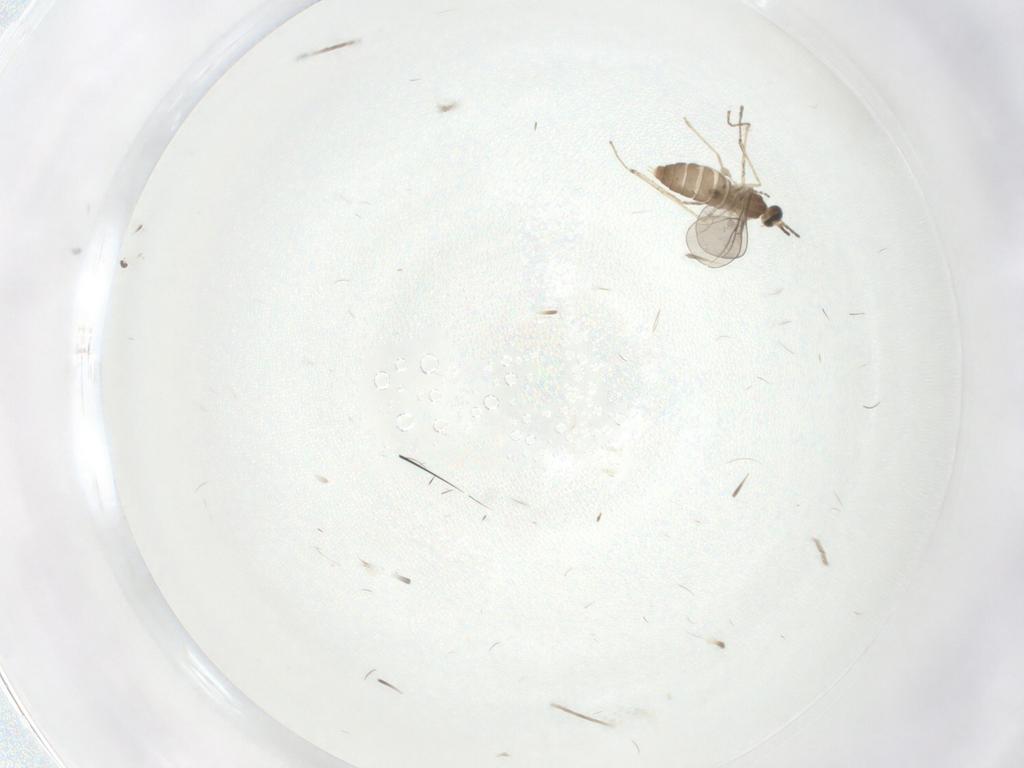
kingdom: Animalia
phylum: Arthropoda
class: Insecta
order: Diptera
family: Cecidomyiidae
